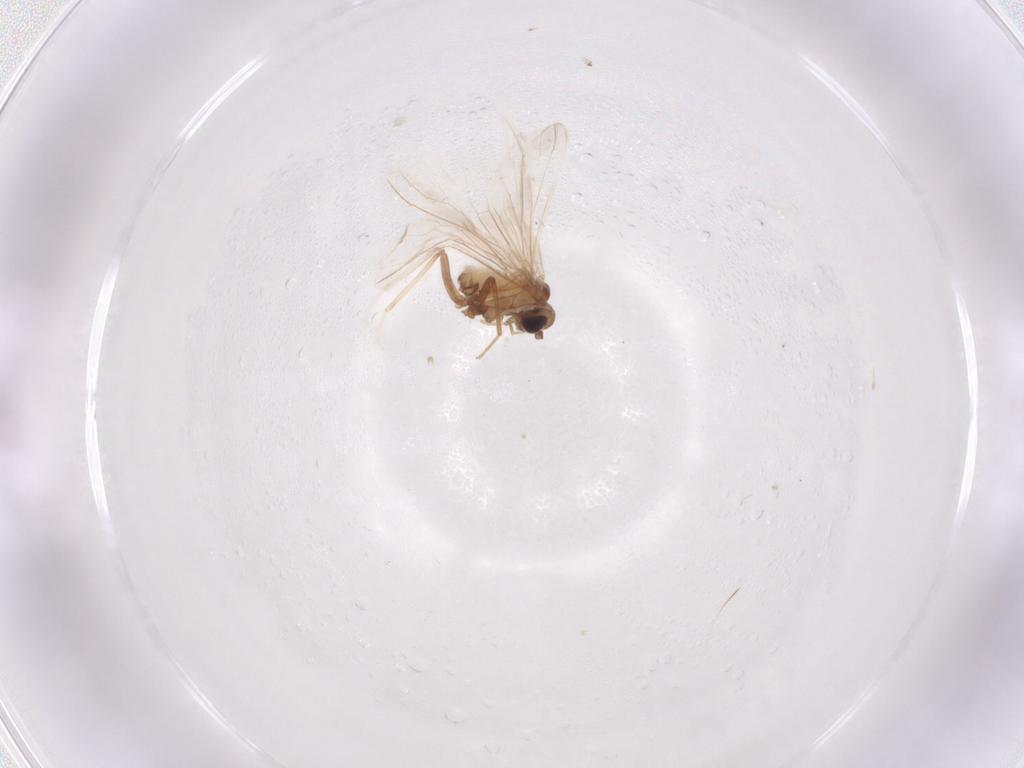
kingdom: Animalia
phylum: Arthropoda
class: Insecta
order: Neuroptera
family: Coniopterygidae
